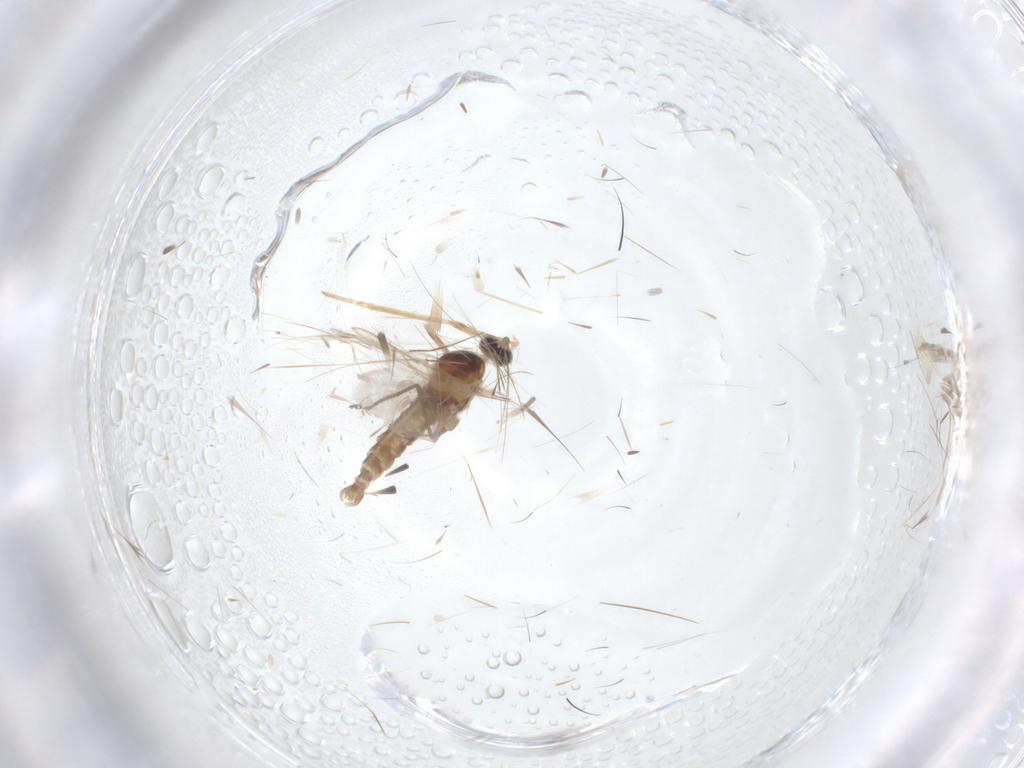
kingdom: Animalia
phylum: Arthropoda
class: Insecta
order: Diptera
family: Cecidomyiidae
